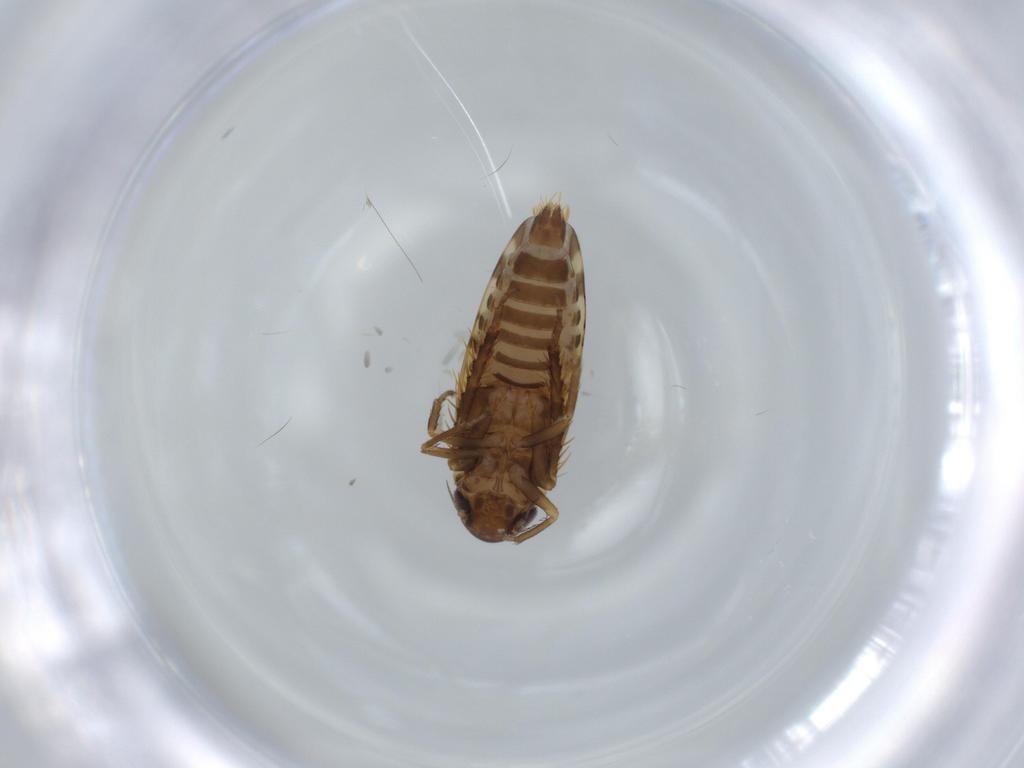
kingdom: Animalia
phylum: Arthropoda
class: Insecta
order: Hemiptera
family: Cicadellidae
